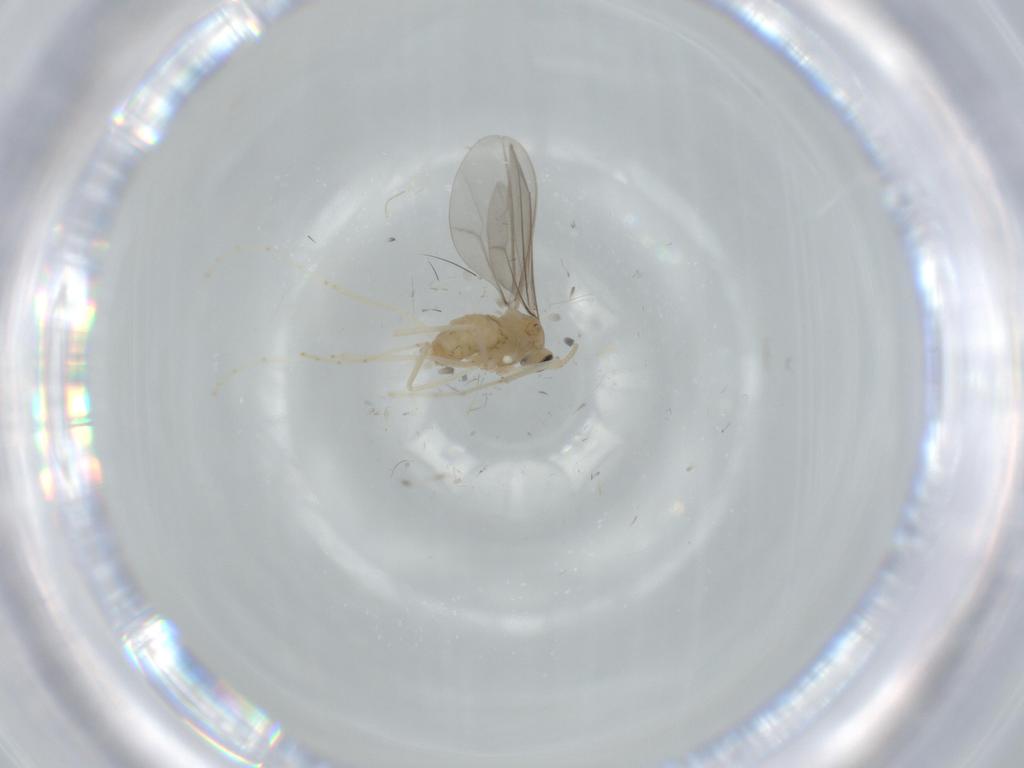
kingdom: Animalia
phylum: Arthropoda
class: Insecta
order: Diptera
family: Cecidomyiidae
